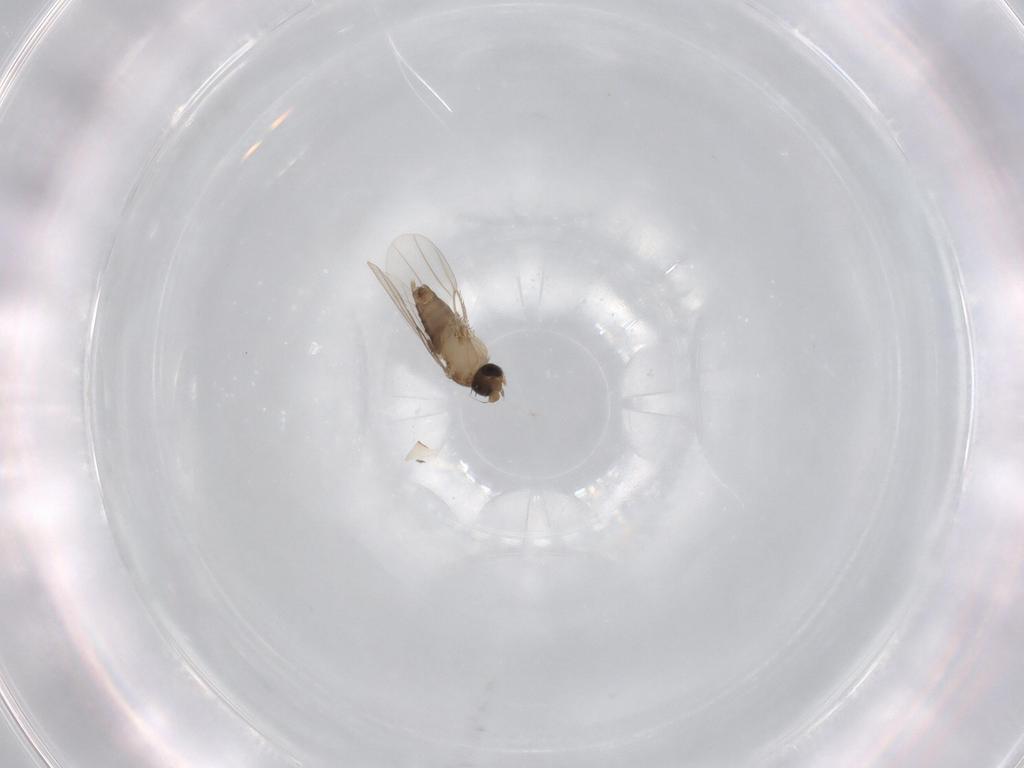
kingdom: Animalia
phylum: Arthropoda
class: Insecta
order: Diptera
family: Phoridae
